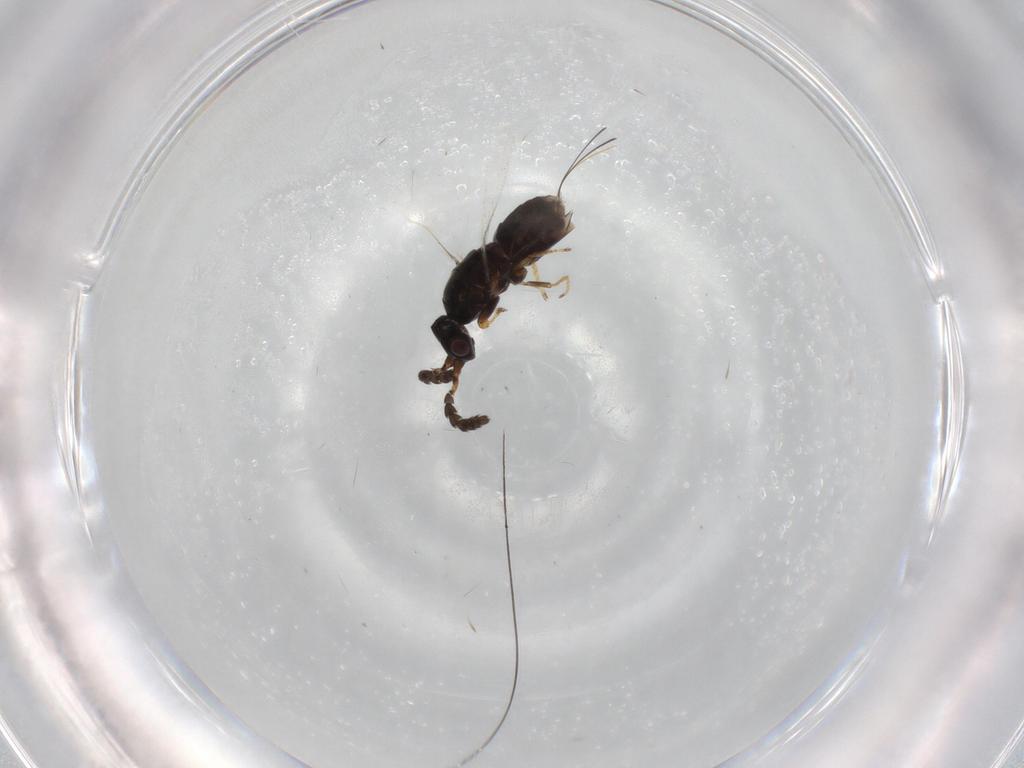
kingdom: Animalia
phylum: Arthropoda
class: Insecta
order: Hymenoptera
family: Agaonidae
